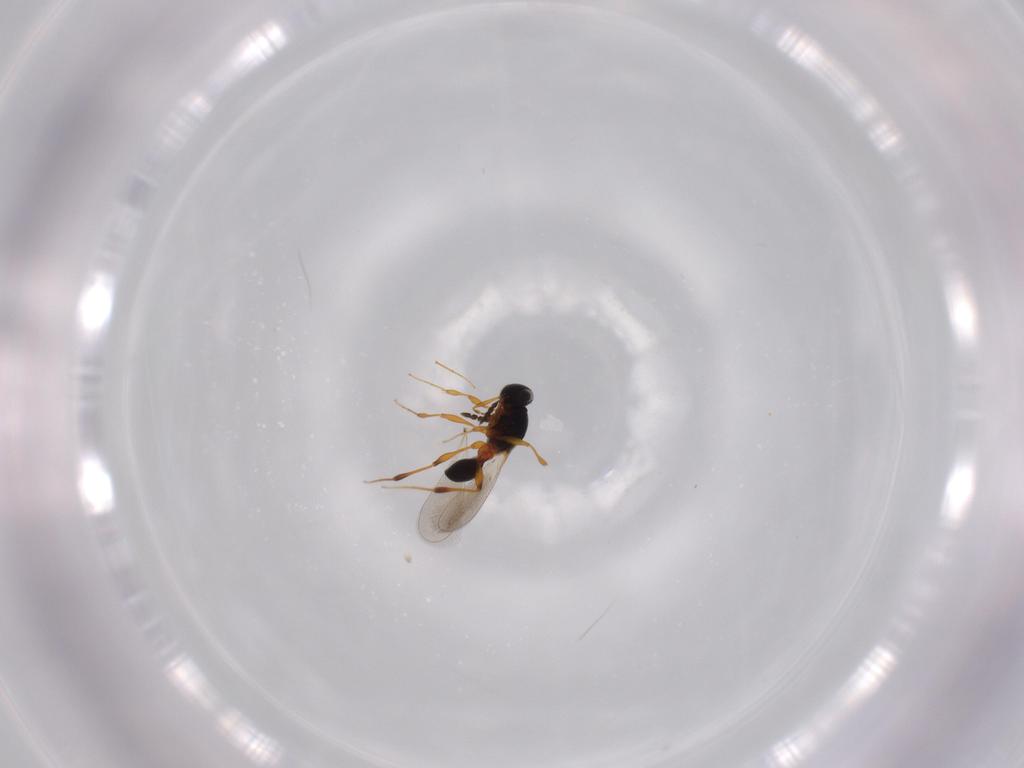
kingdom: Animalia
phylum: Arthropoda
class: Insecta
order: Hymenoptera
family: Platygastridae
